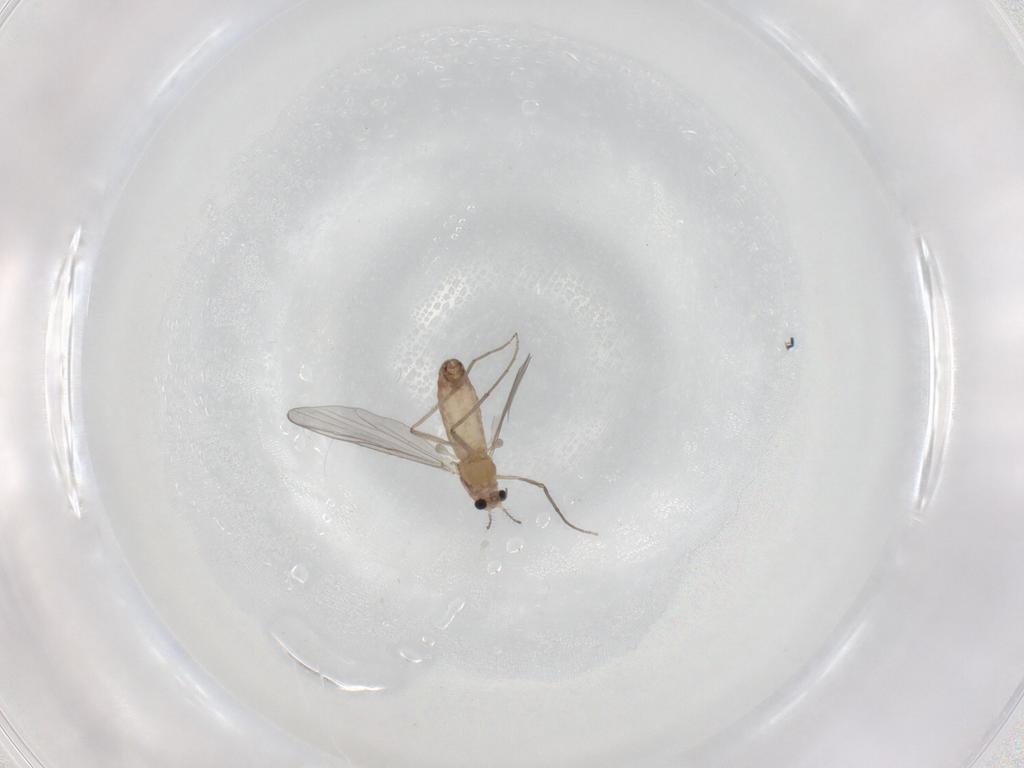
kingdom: Animalia
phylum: Arthropoda
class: Insecta
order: Diptera
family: Chironomidae
